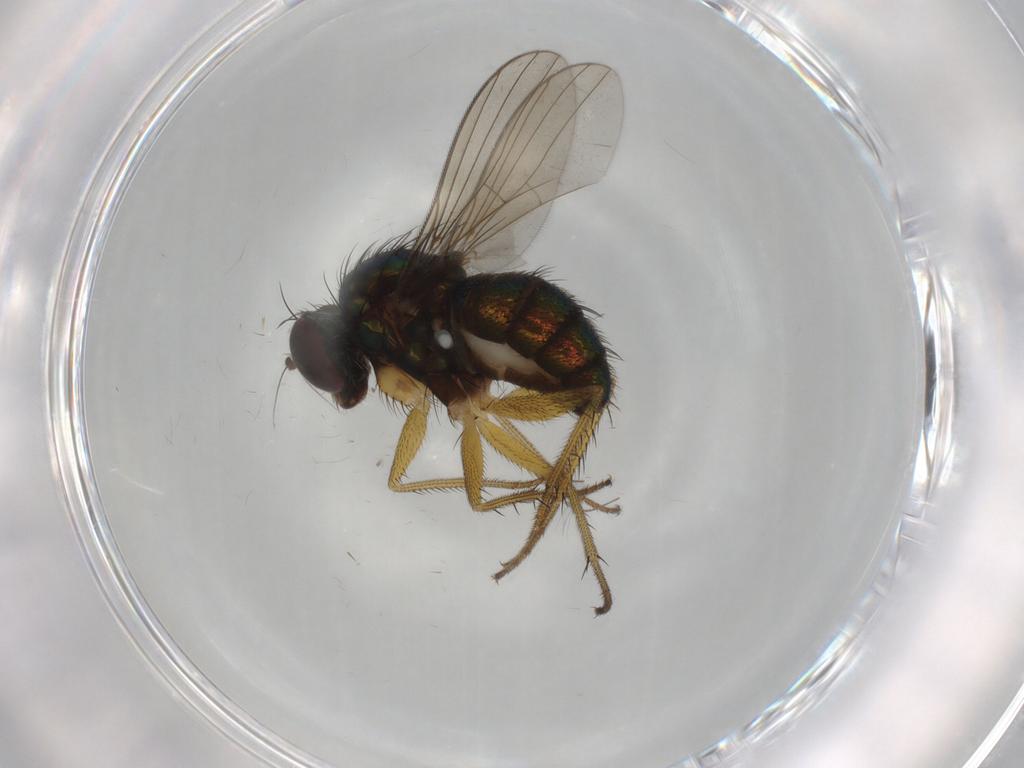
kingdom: Animalia
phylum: Arthropoda
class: Insecta
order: Diptera
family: Dolichopodidae
